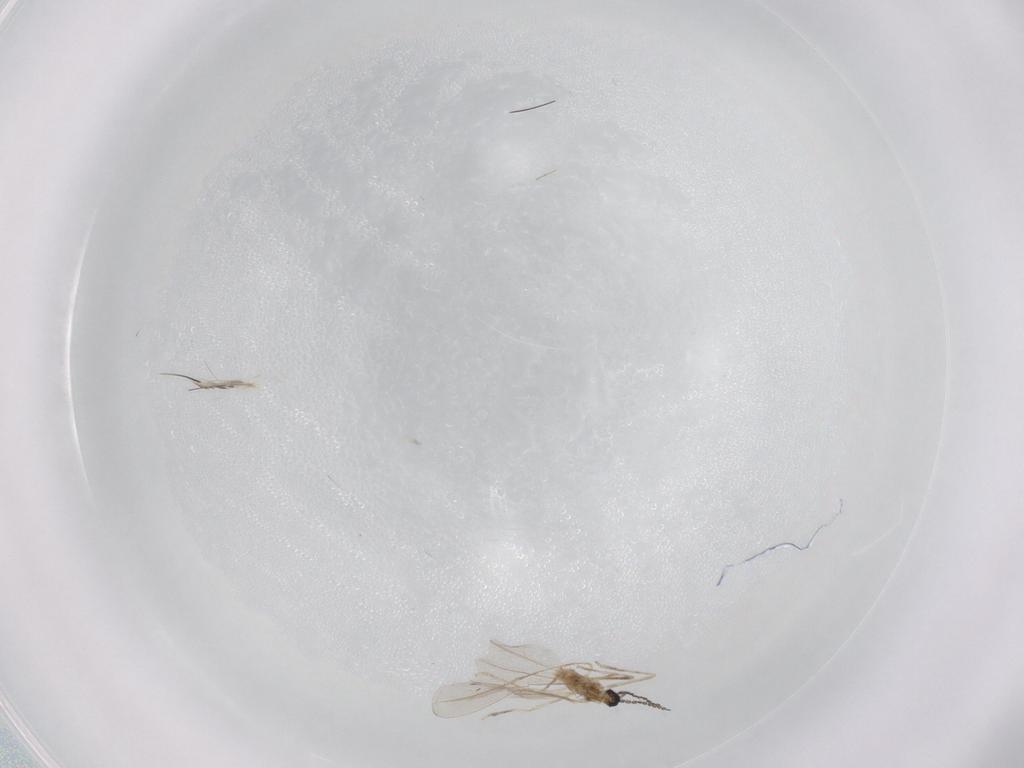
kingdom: Animalia
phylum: Arthropoda
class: Insecta
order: Diptera
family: Cecidomyiidae
